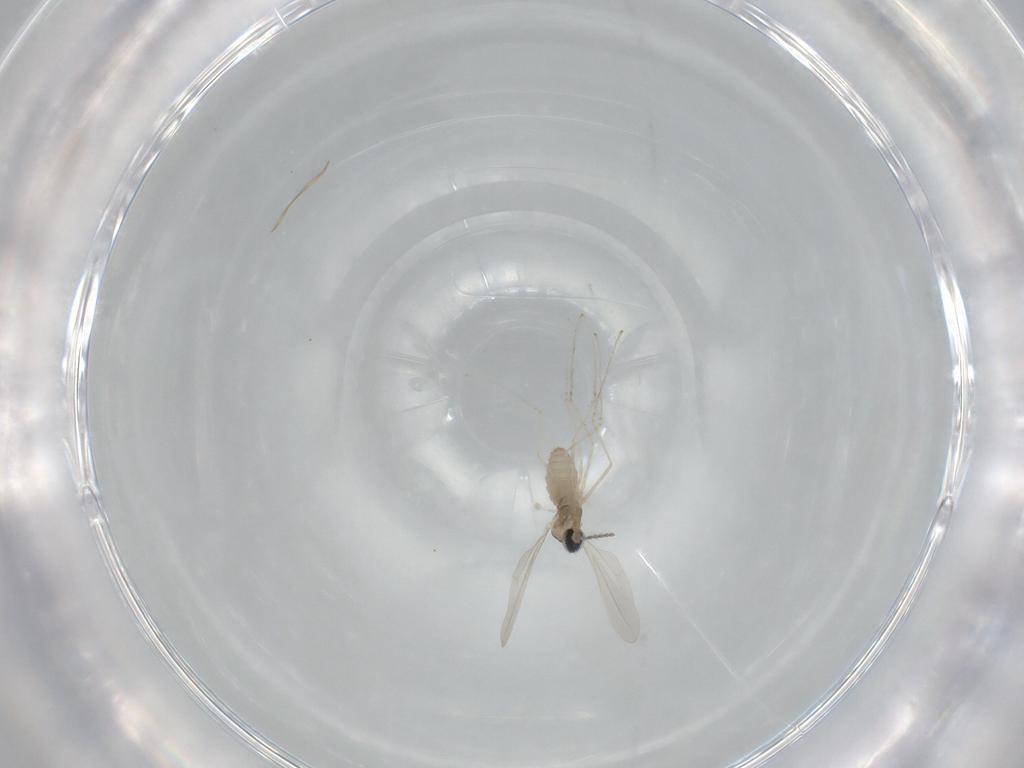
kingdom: Animalia
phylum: Arthropoda
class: Insecta
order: Diptera
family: Cecidomyiidae
